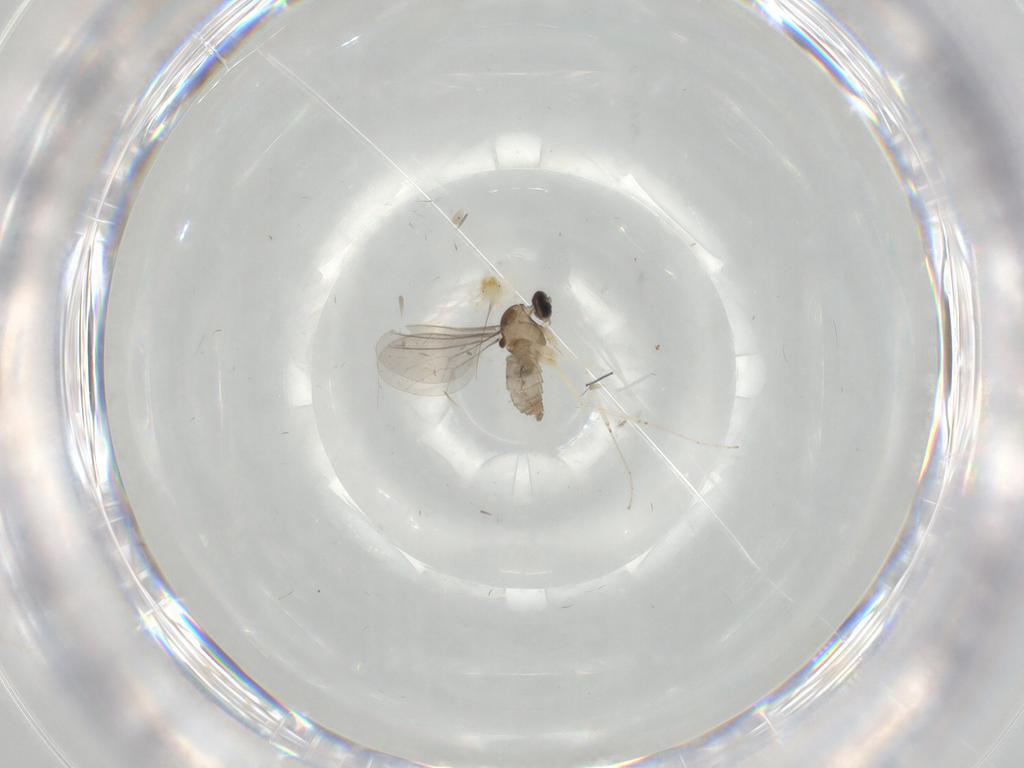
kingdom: Animalia
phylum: Arthropoda
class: Insecta
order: Diptera
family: Cecidomyiidae
